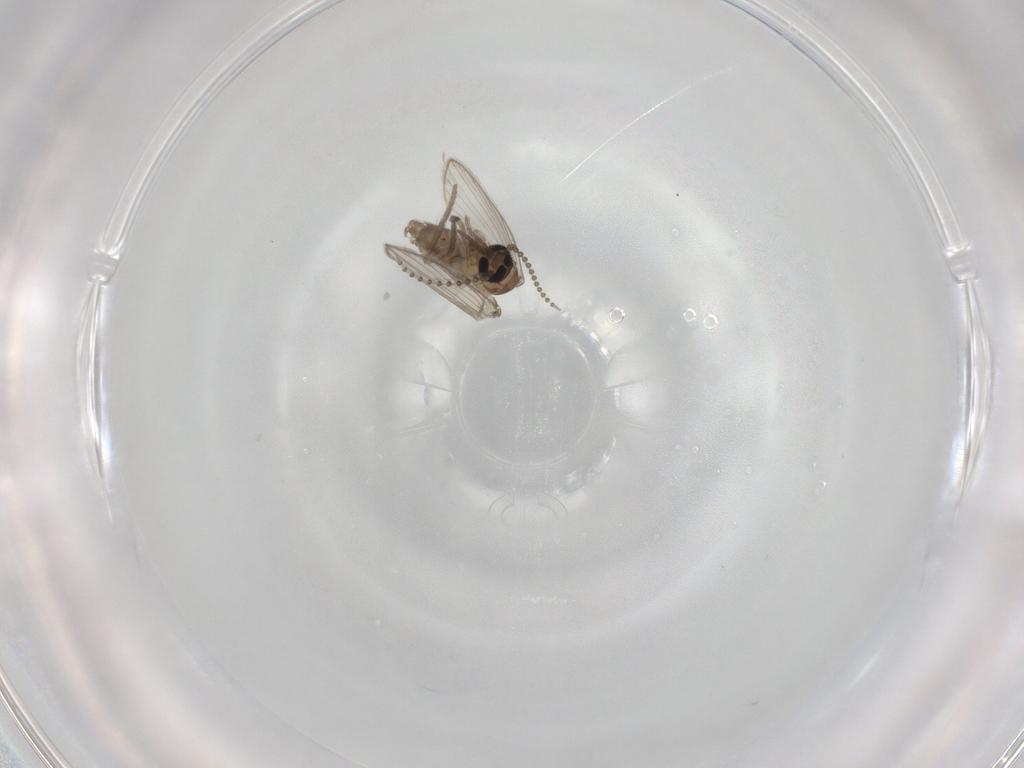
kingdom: Animalia
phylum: Arthropoda
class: Insecta
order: Diptera
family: Psychodidae
